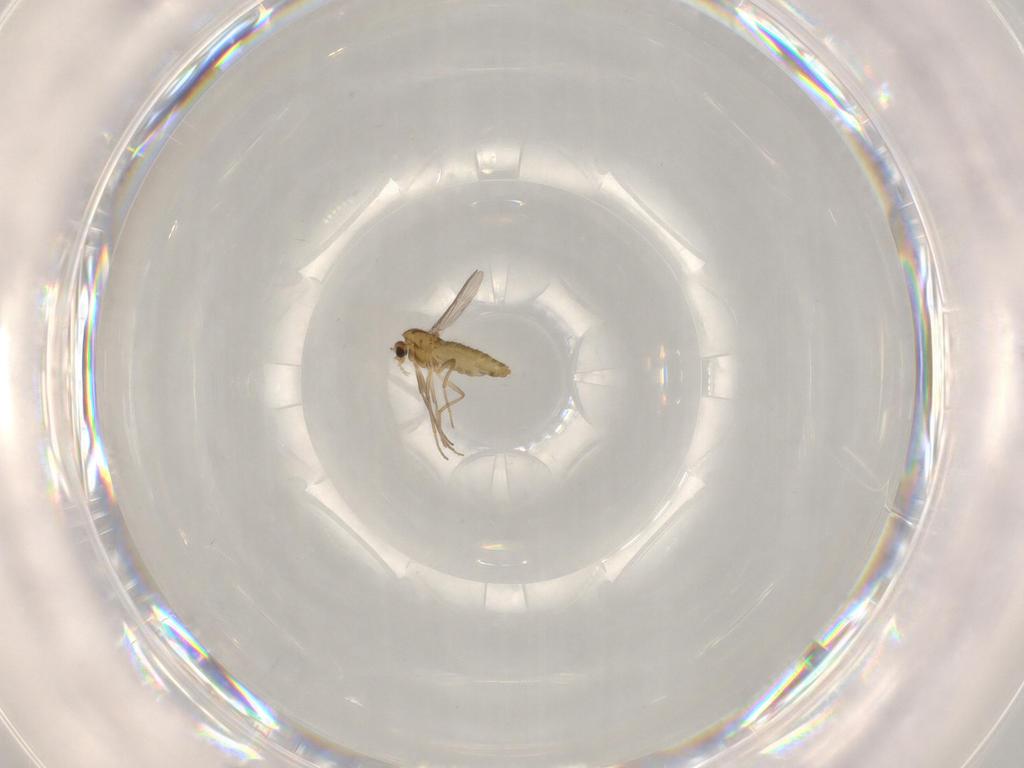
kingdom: Animalia
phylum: Arthropoda
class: Insecta
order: Diptera
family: Chironomidae
